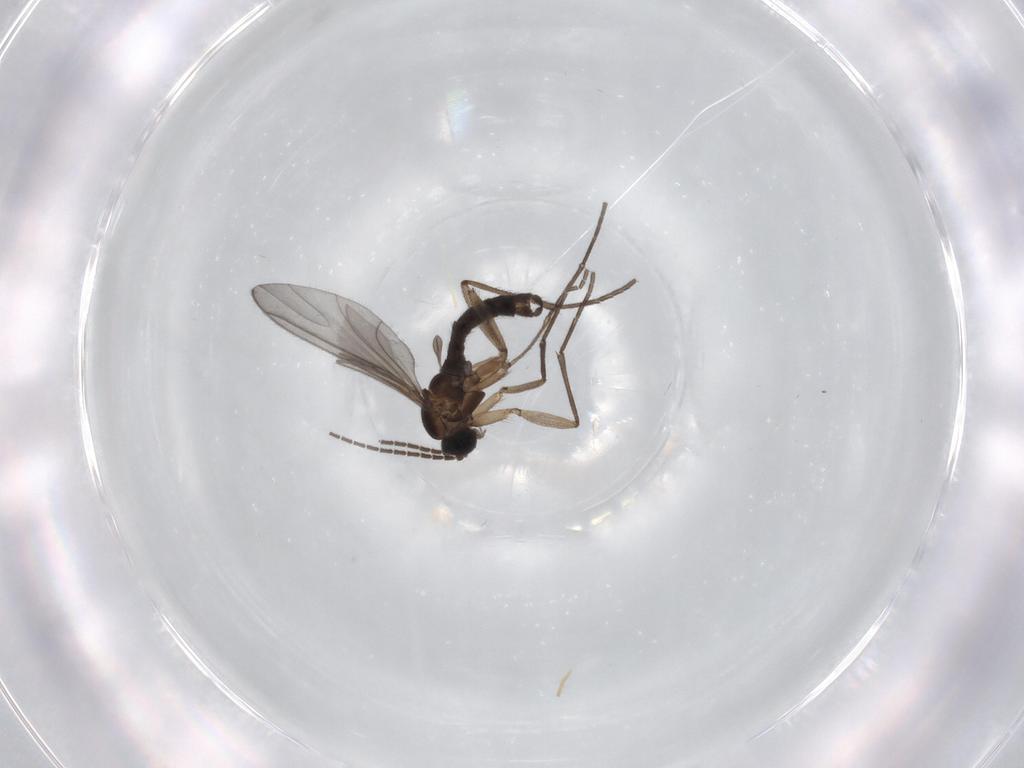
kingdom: Animalia
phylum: Arthropoda
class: Insecta
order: Diptera
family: Sciaridae
